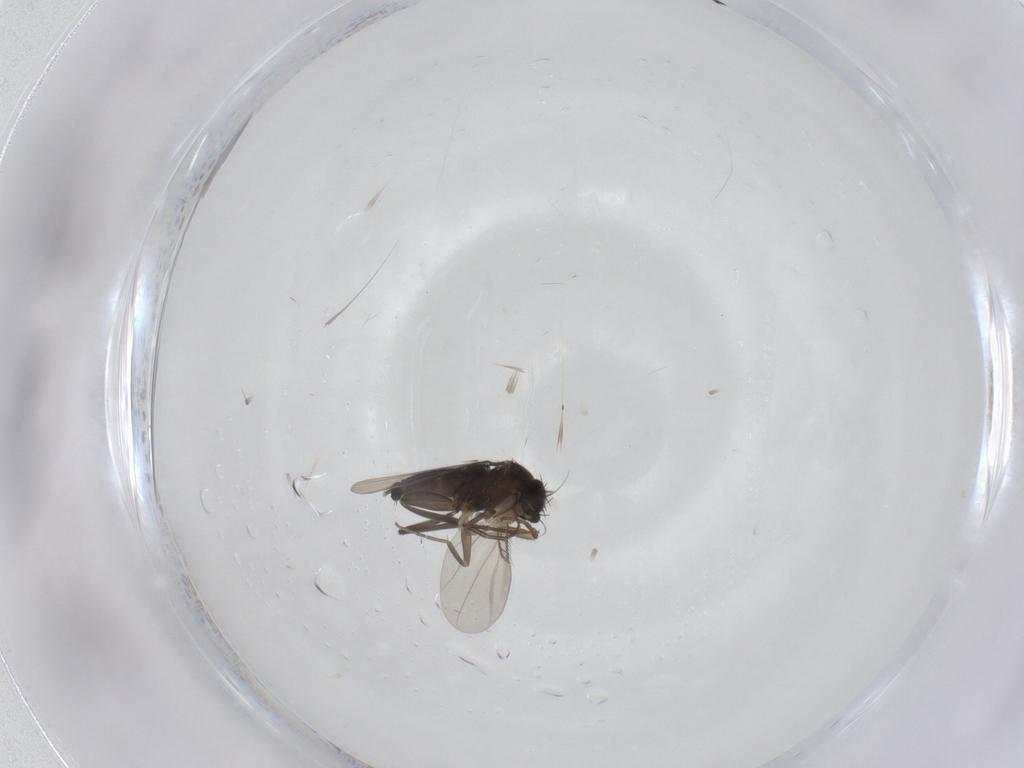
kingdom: Animalia
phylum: Arthropoda
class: Insecta
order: Diptera
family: Phoridae
